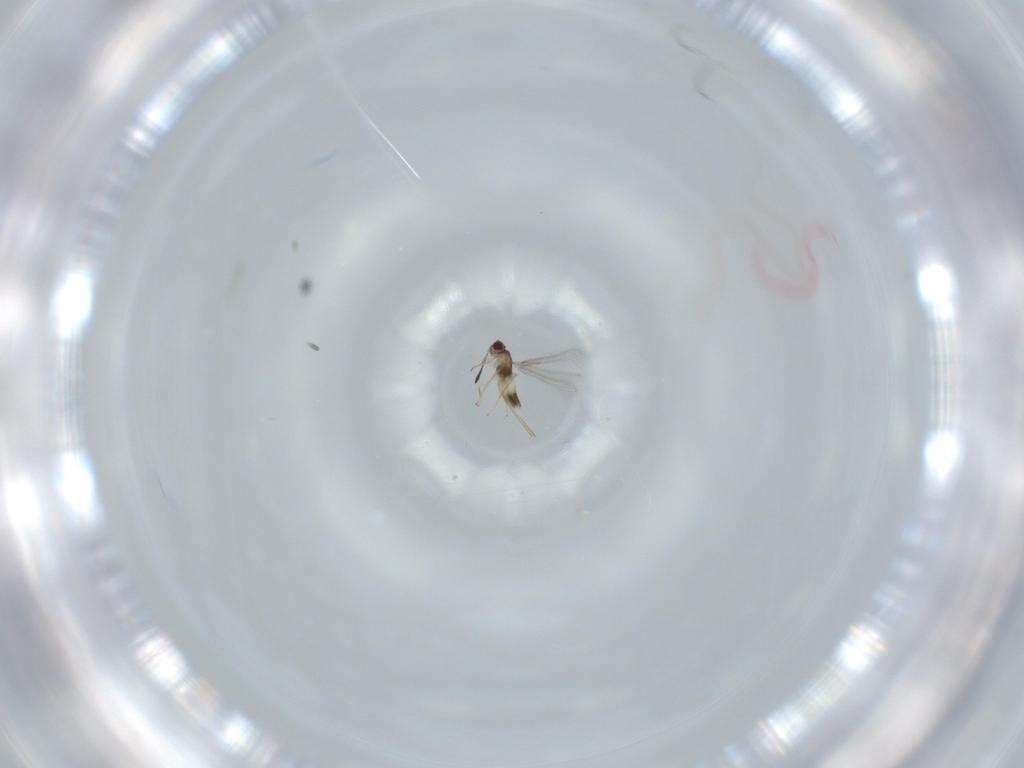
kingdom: Animalia
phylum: Arthropoda
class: Insecta
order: Hymenoptera
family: Mymaridae
